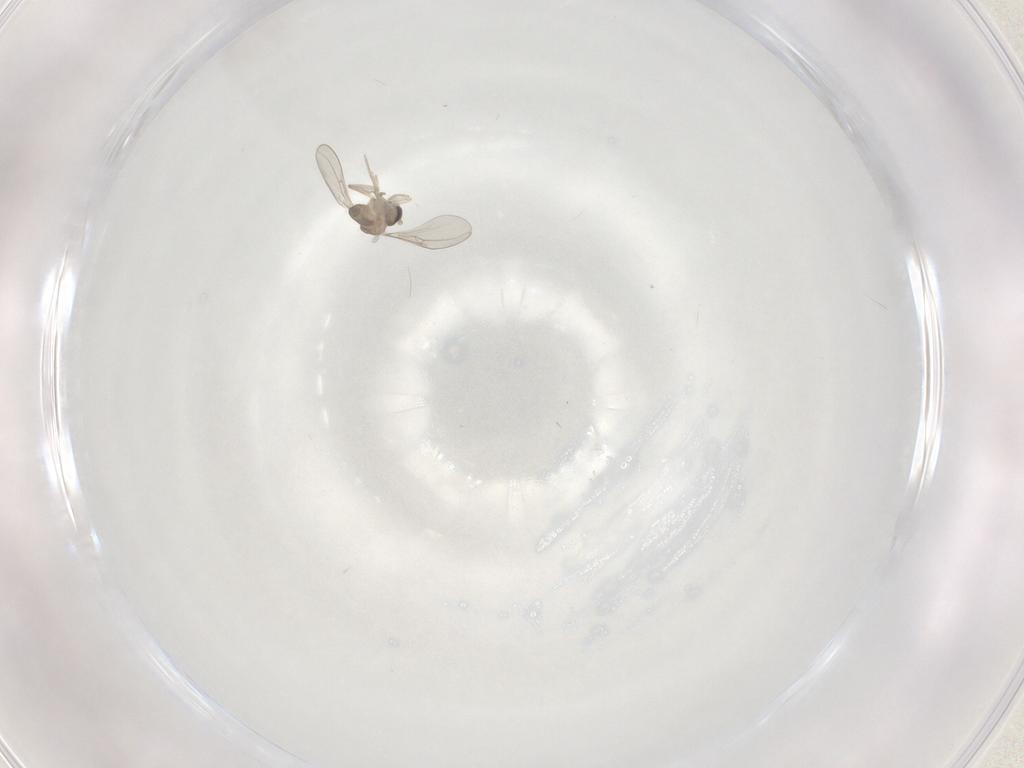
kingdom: Animalia
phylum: Arthropoda
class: Insecta
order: Diptera
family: Cecidomyiidae
